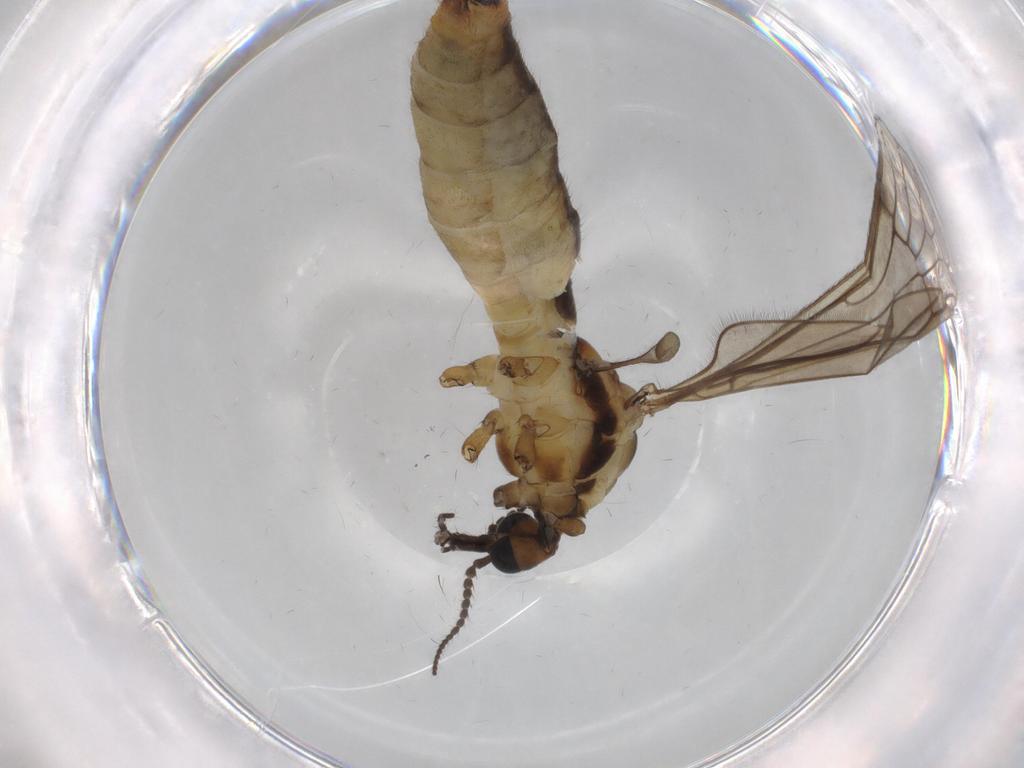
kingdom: Animalia
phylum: Arthropoda
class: Insecta
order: Diptera
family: Limoniidae
